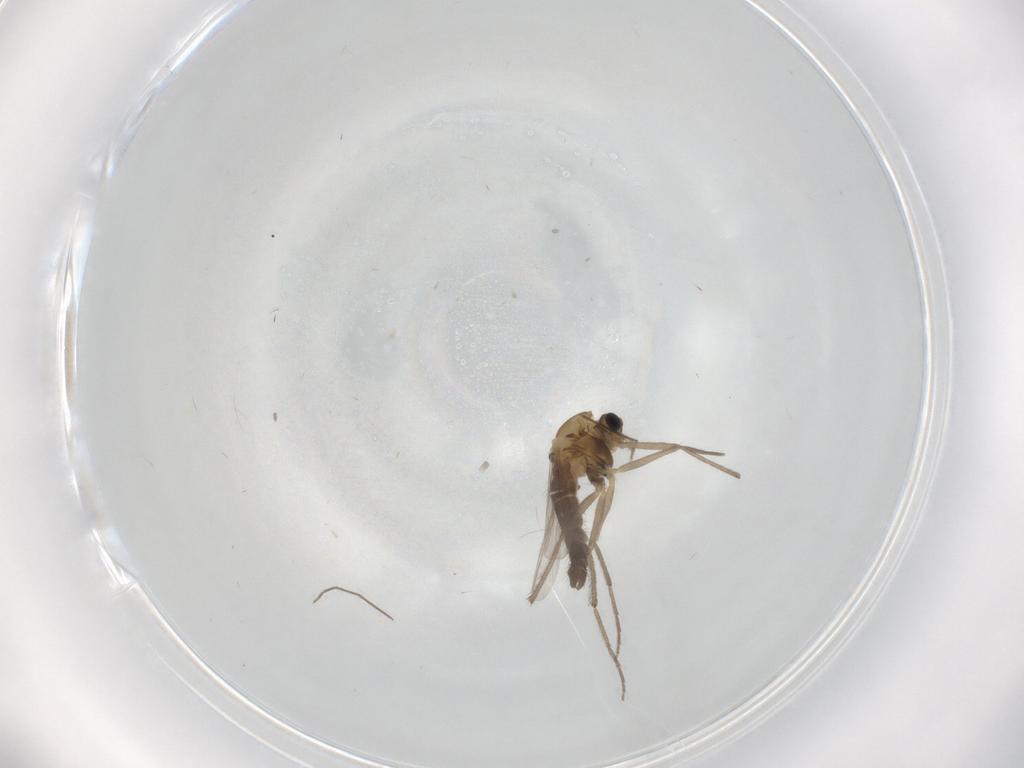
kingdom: Animalia
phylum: Arthropoda
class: Insecta
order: Diptera
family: Chironomidae
